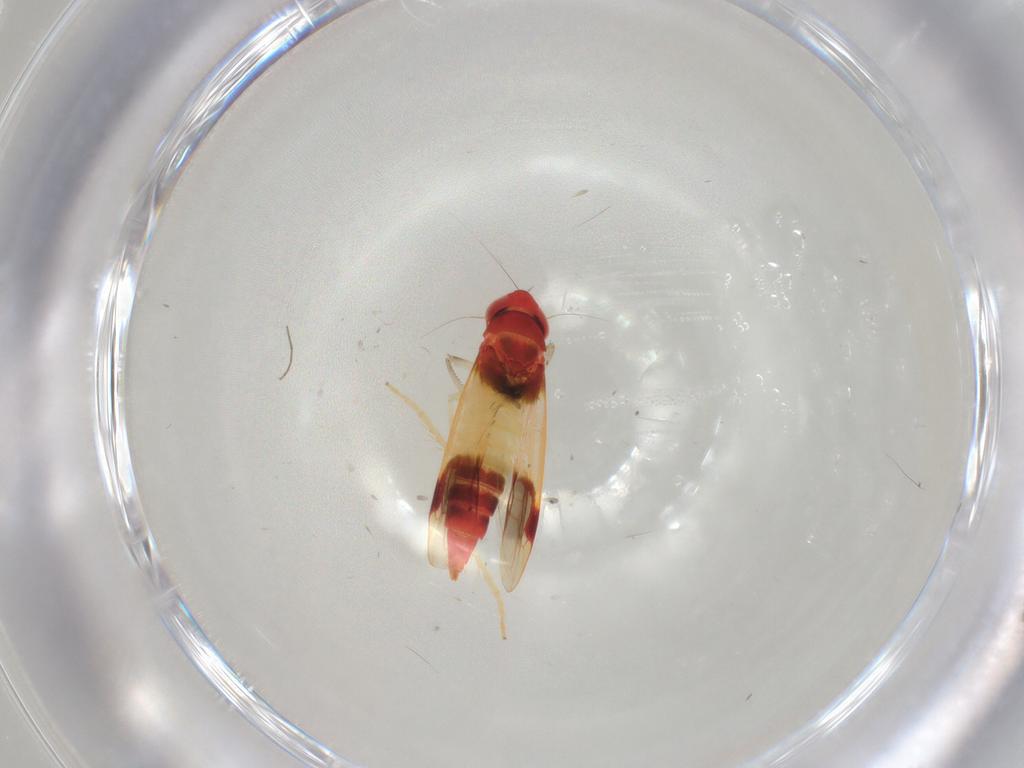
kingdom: Animalia
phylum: Arthropoda
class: Insecta
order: Hemiptera
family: Cicadellidae
